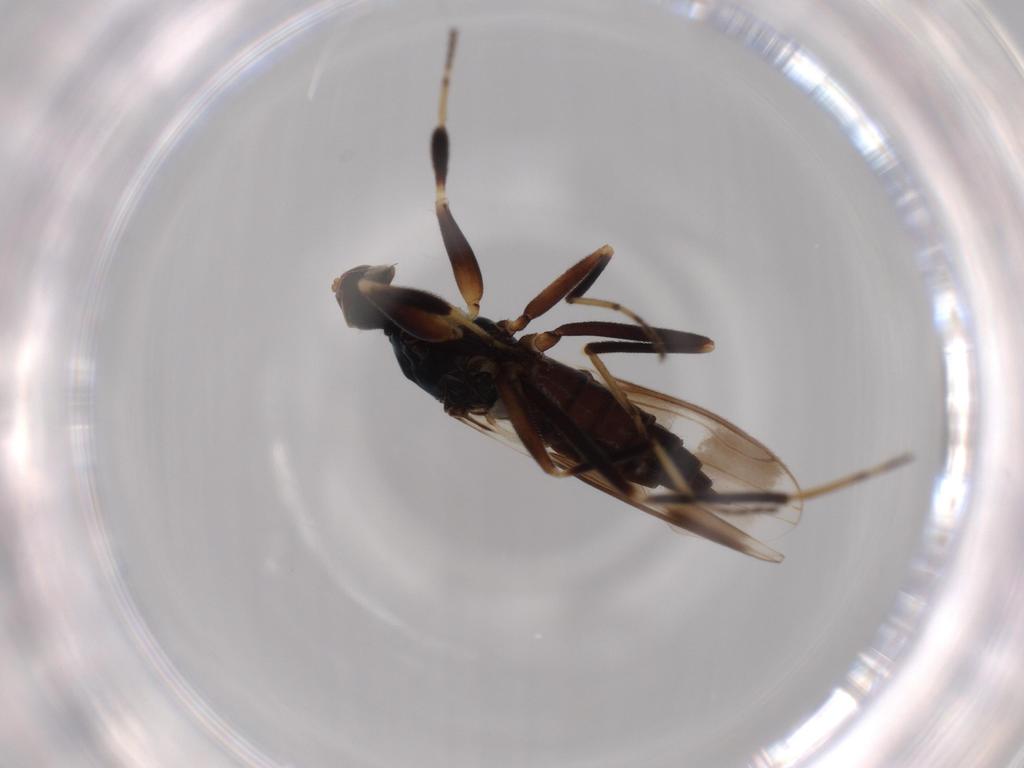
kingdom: Animalia
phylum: Arthropoda
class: Insecta
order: Diptera
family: Hybotidae
